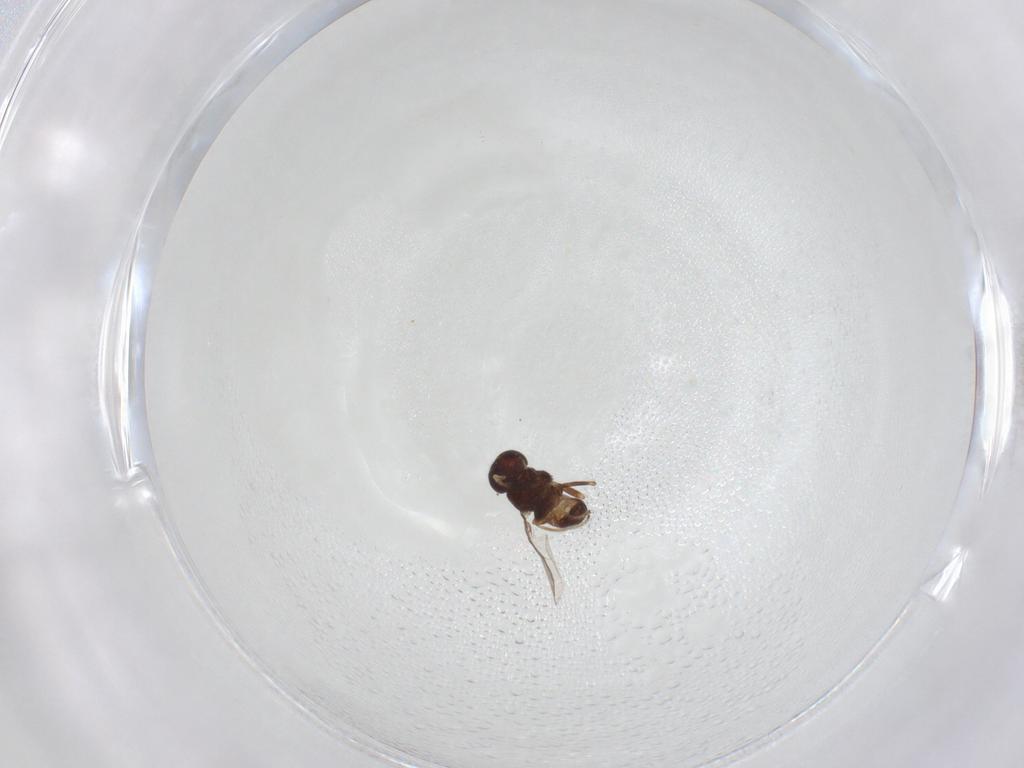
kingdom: Animalia
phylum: Arthropoda
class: Insecta
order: Diptera
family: Chloropidae
